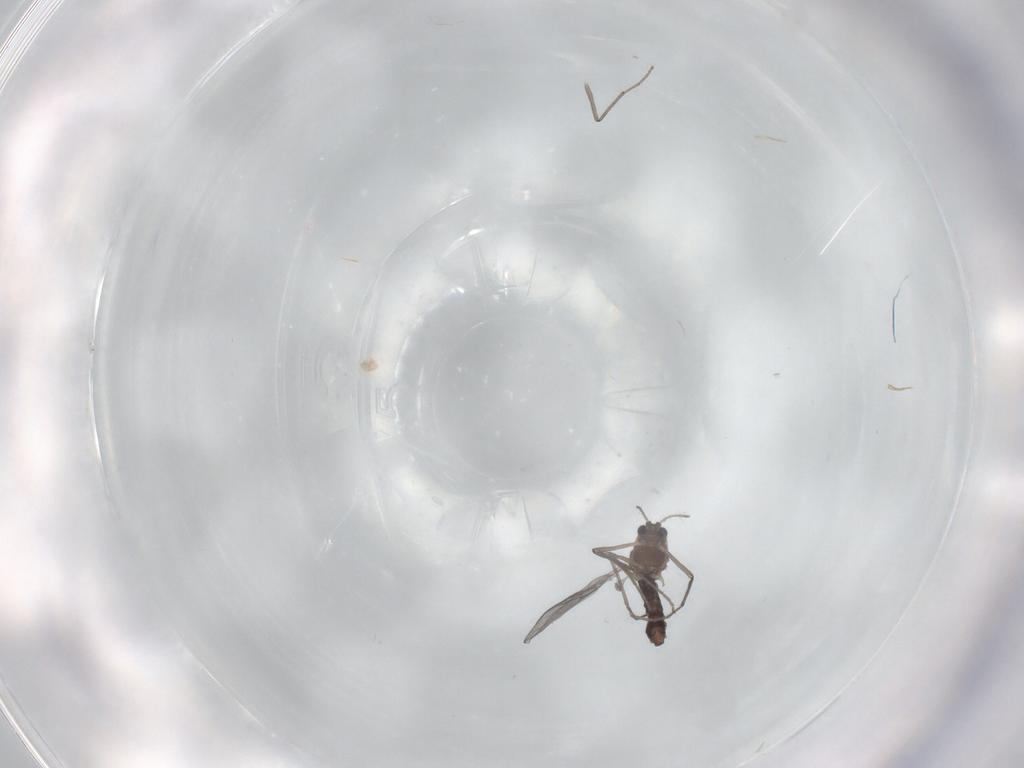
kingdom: Animalia
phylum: Arthropoda
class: Insecta
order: Diptera
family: Chironomidae
